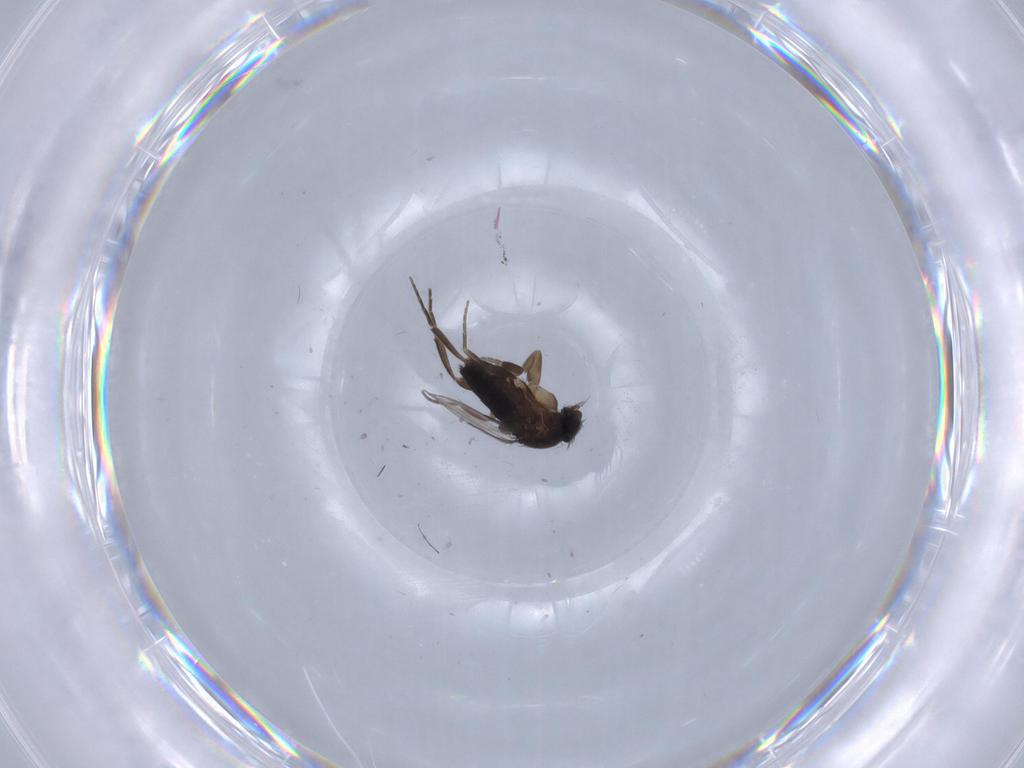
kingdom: Animalia
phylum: Arthropoda
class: Insecta
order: Diptera
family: Phoridae
